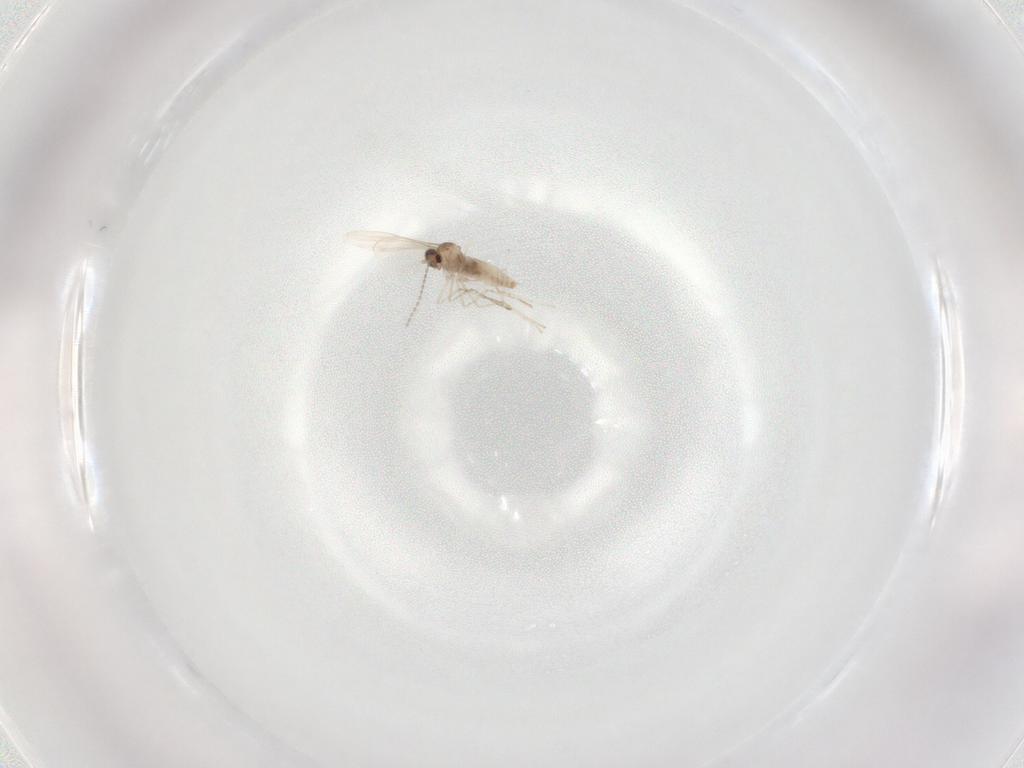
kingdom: Animalia
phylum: Arthropoda
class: Insecta
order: Diptera
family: Cecidomyiidae
